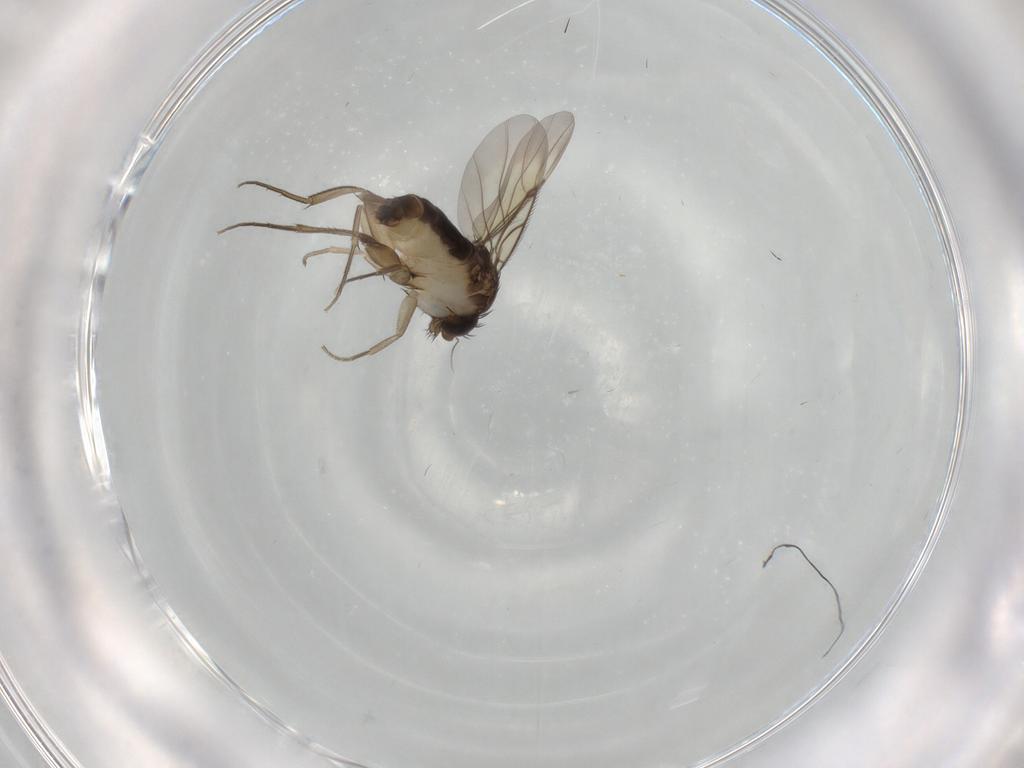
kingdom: Animalia
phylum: Arthropoda
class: Insecta
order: Diptera
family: Phoridae
